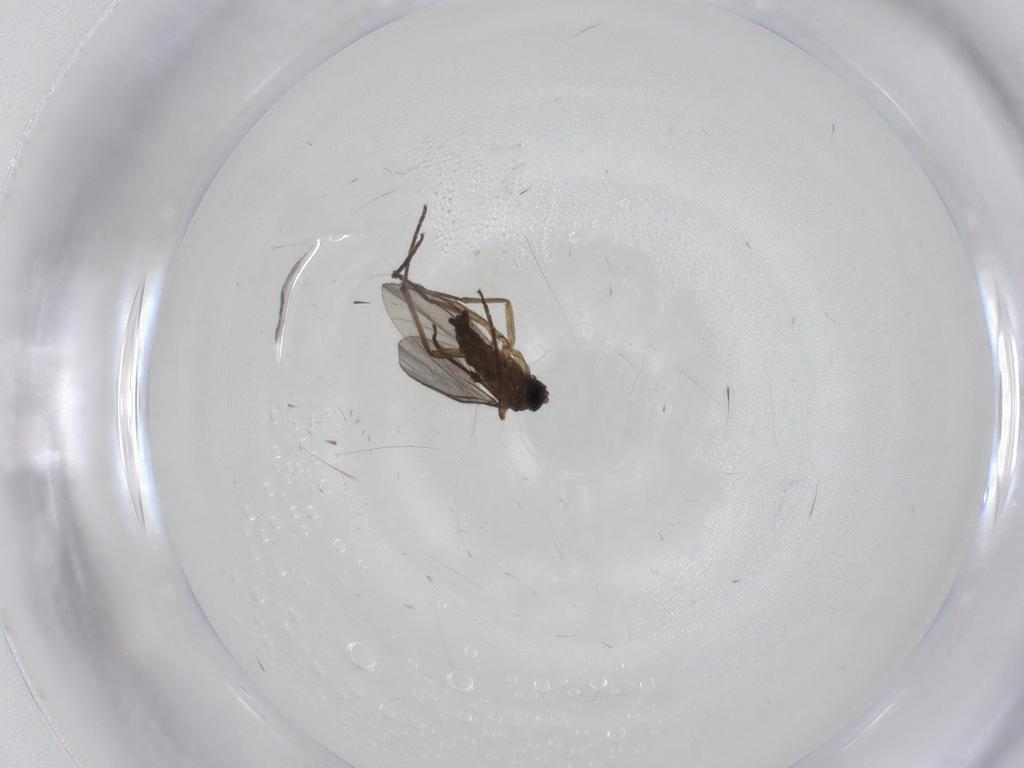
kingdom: Animalia
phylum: Arthropoda
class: Insecta
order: Diptera
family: Sciaridae
